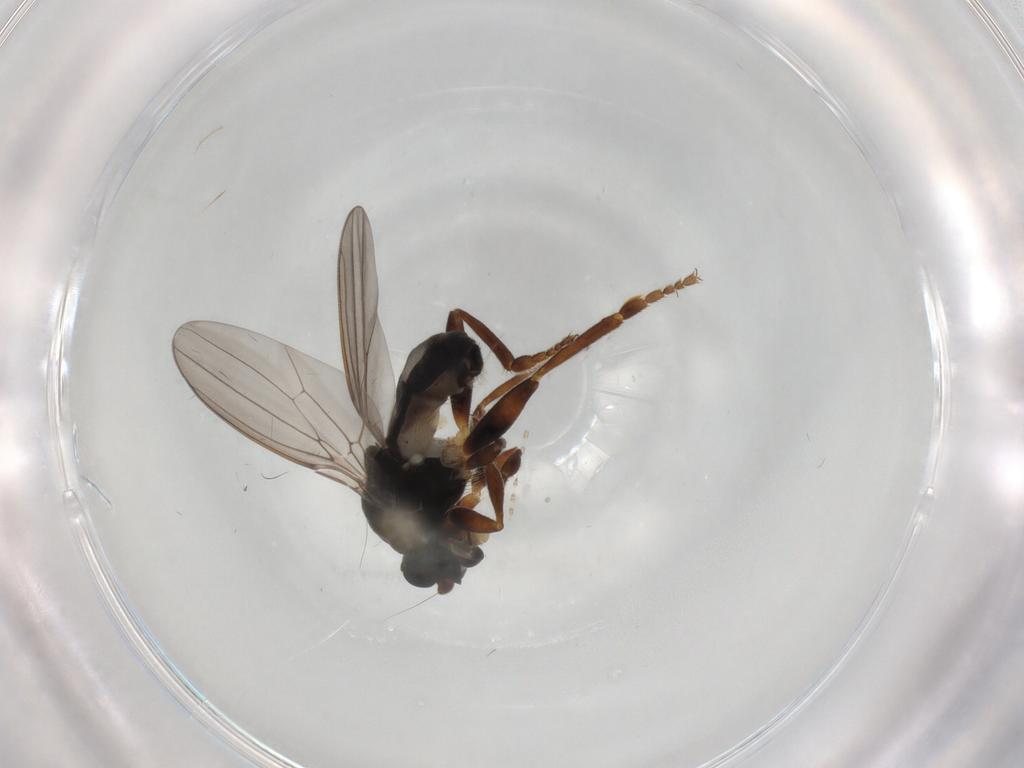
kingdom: Animalia
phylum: Arthropoda
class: Insecta
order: Diptera
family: Sphaeroceridae
